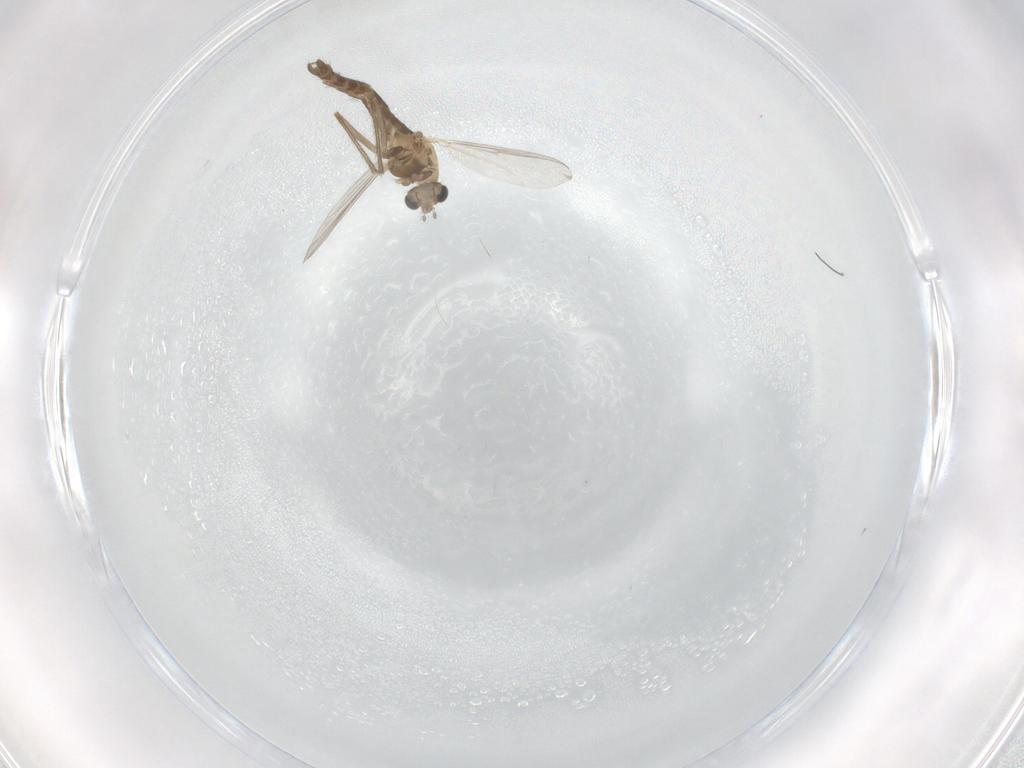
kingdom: Animalia
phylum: Arthropoda
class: Insecta
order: Diptera
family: Chironomidae
